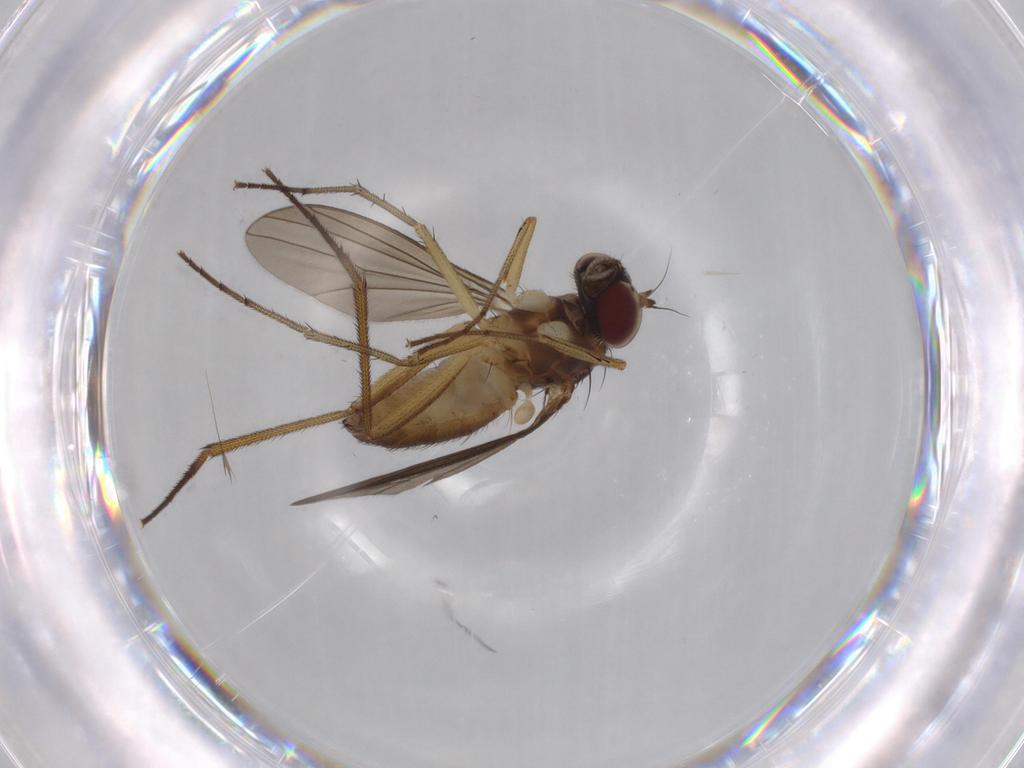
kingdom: Animalia
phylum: Arthropoda
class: Insecta
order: Diptera
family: Dolichopodidae
